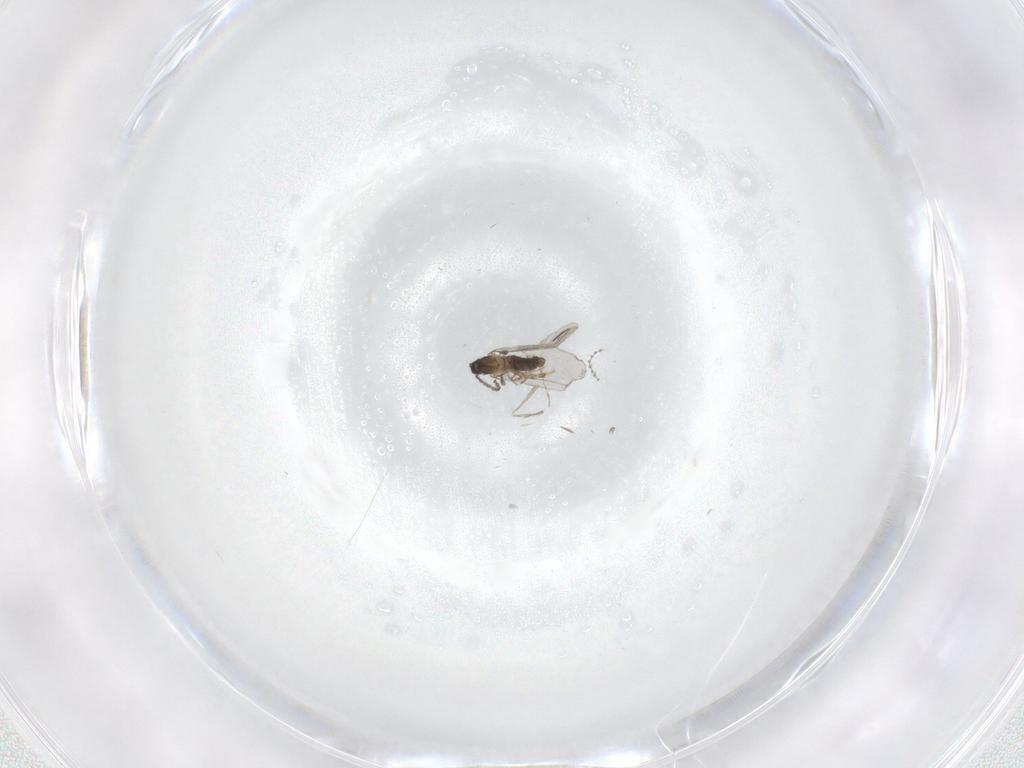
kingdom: Animalia
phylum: Arthropoda
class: Insecta
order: Diptera
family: Cecidomyiidae
